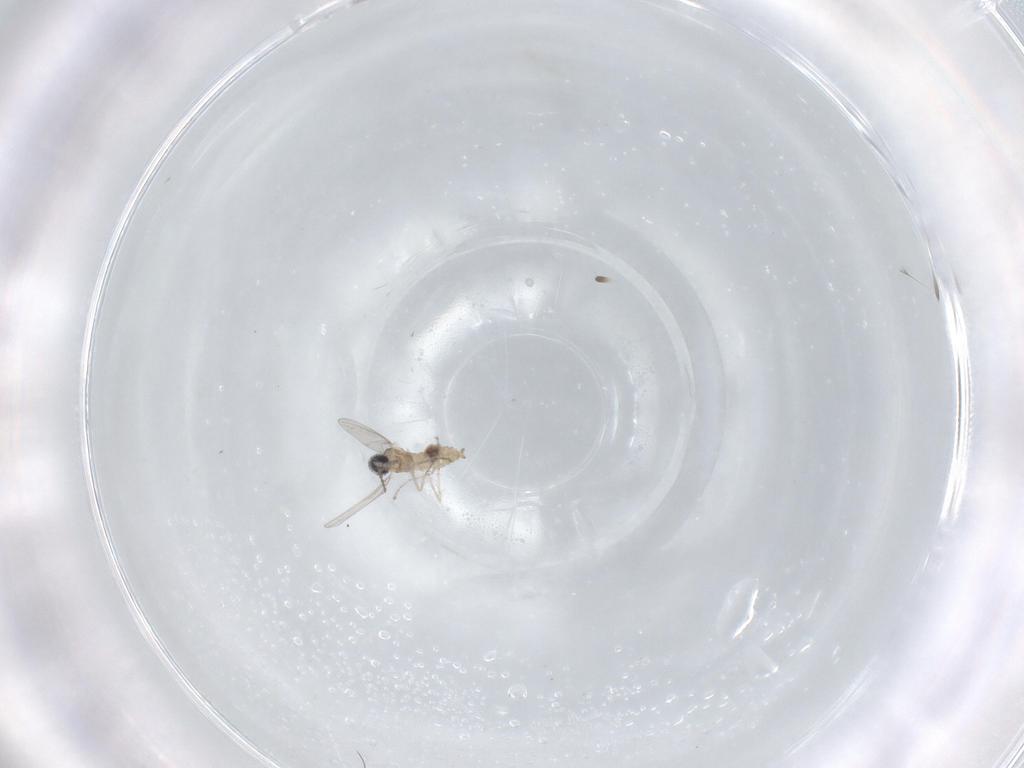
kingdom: Animalia
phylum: Arthropoda
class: Insecta
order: Diptera
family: Cecidomyiidae
